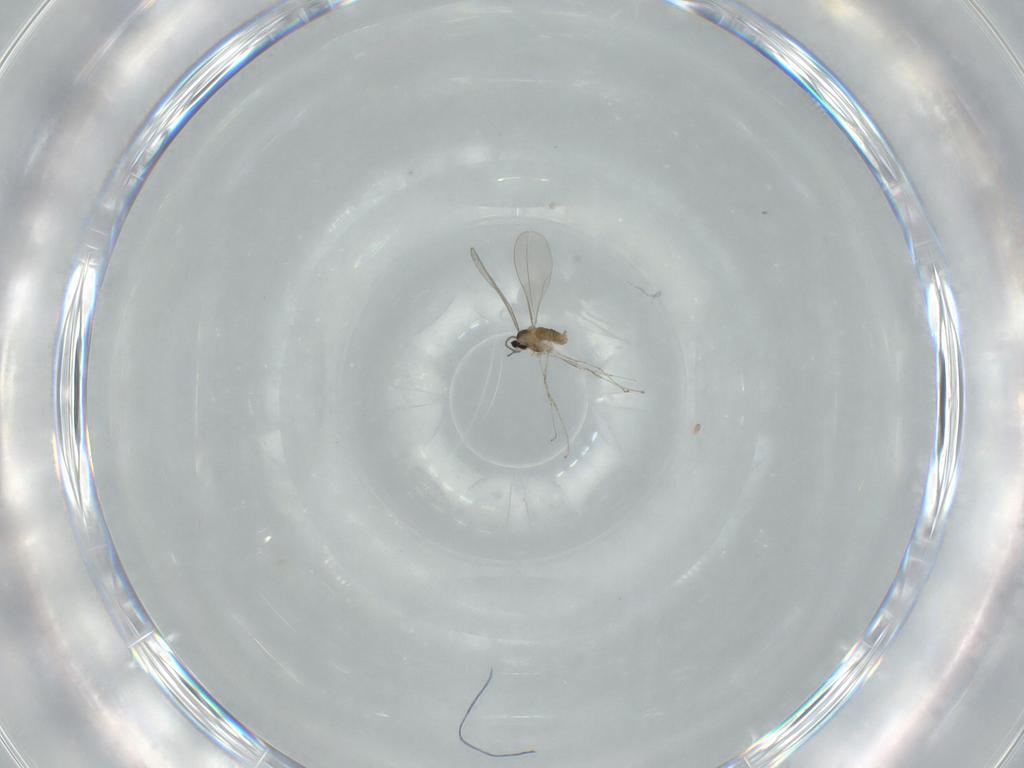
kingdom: Animalia
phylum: Arthropoda
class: Insecta
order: Diptera
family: Cecidomyiidae
